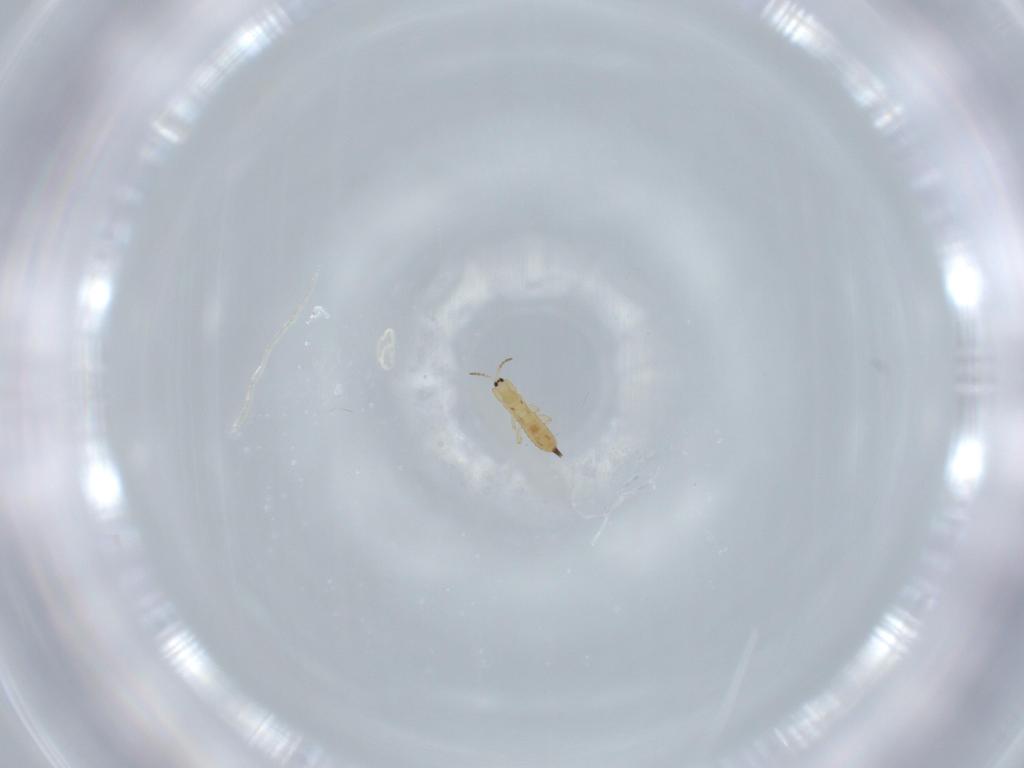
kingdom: Animalia
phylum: Arthropoda
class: Insecta
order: Thysanoptera
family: Phlaeothripidae
